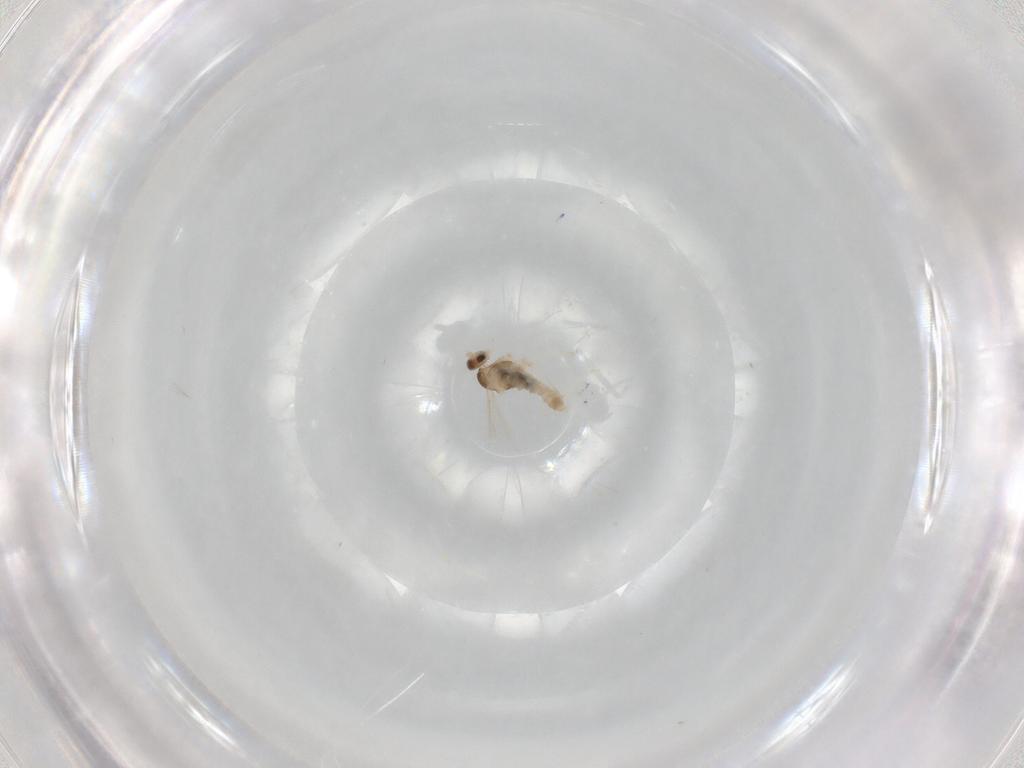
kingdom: Animalia
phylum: Arthropoda
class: Insecta
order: Diptera
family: Cecidomyiidae
